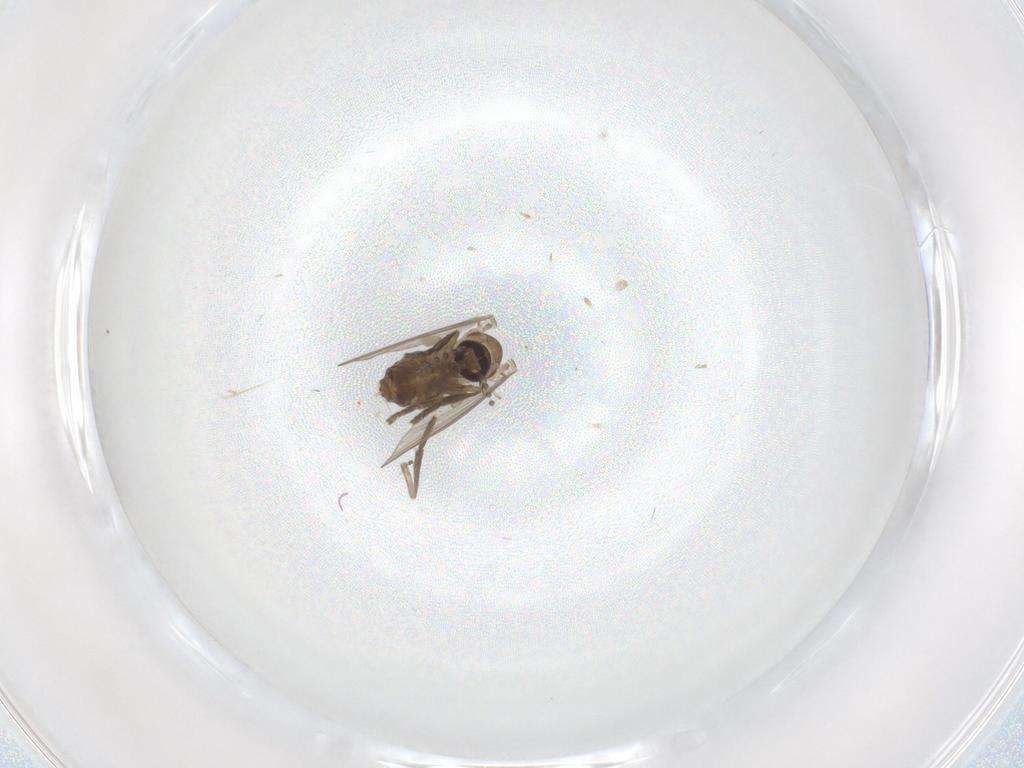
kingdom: Animalia
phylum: Arthropoda
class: Insecta
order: Diptera
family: Psychodidae
